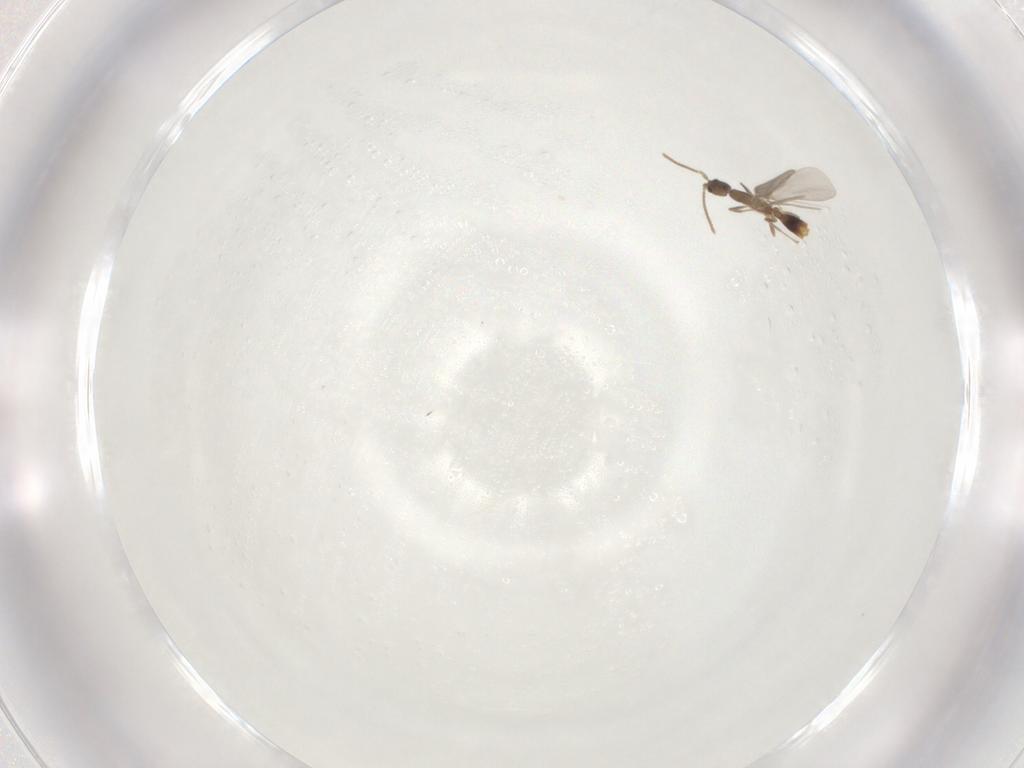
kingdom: Animalia
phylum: Arthropoda
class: Insecta
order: Hymenoptera
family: Formicidae
